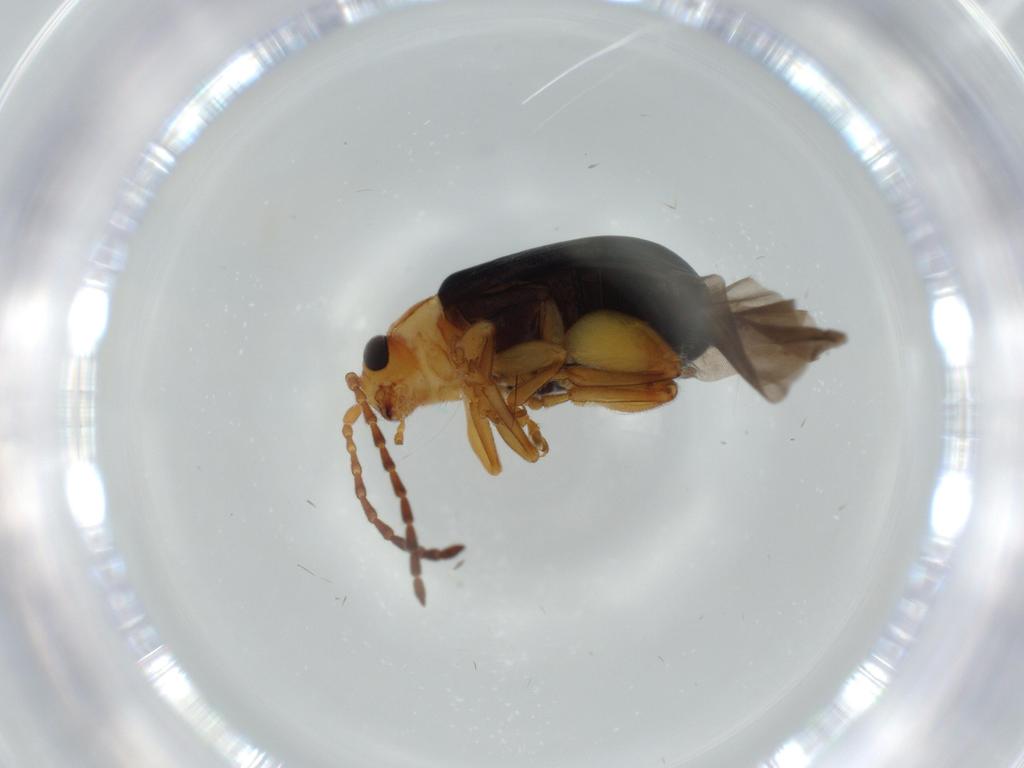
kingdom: Animalia
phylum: Arthropoda
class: Insecta
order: Coleoptera
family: Chrysomelidae
